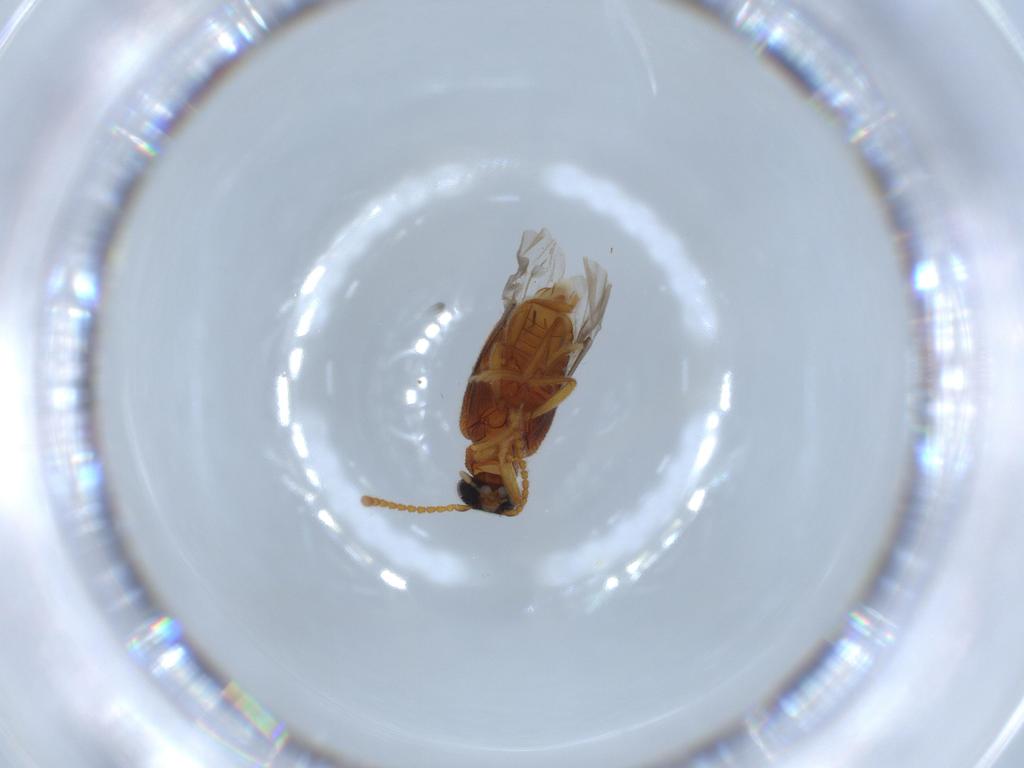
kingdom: Animalia
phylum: Arthropoda
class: Insecta
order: Coleoptera
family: Aderidae
